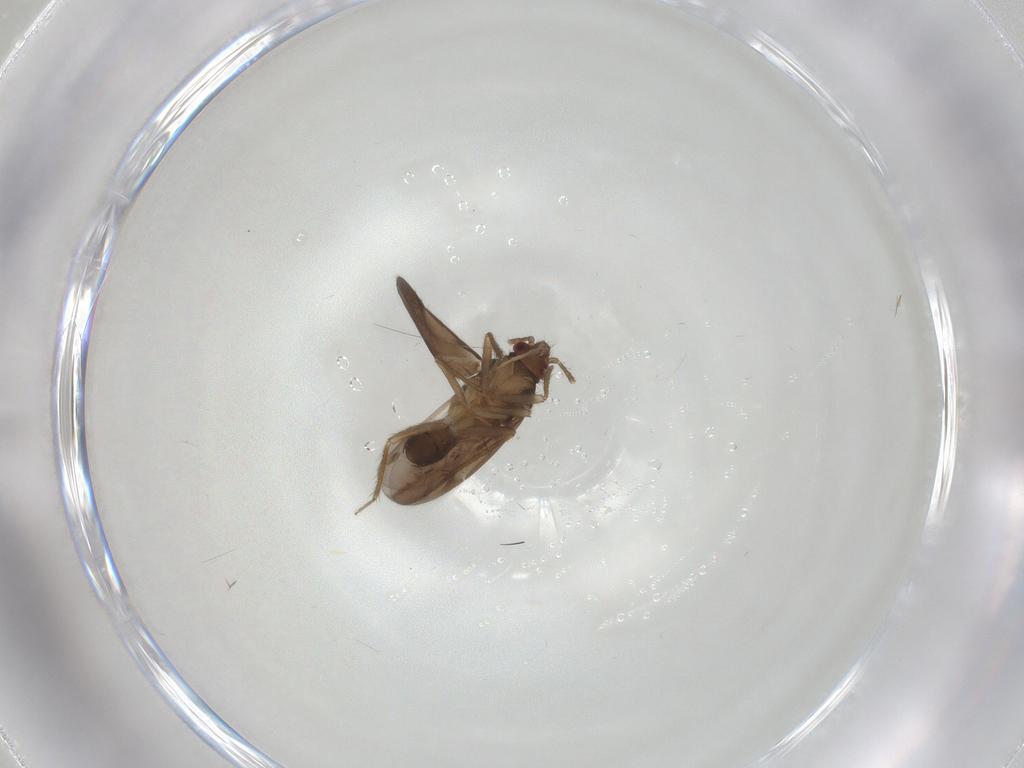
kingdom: Animalia
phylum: Arthropoda
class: Insecta
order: Hemiptera
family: Ceratocombidae
